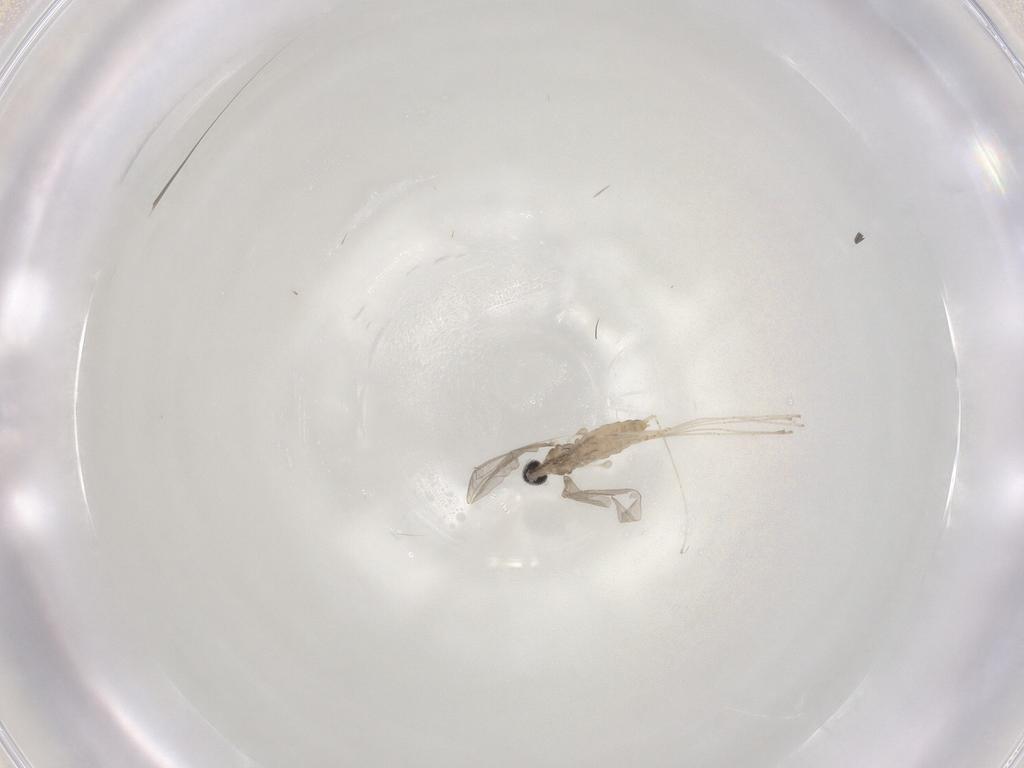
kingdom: Animalia
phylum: Arthropoda
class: Insecta
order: Diptera
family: Cecidomyiidae
